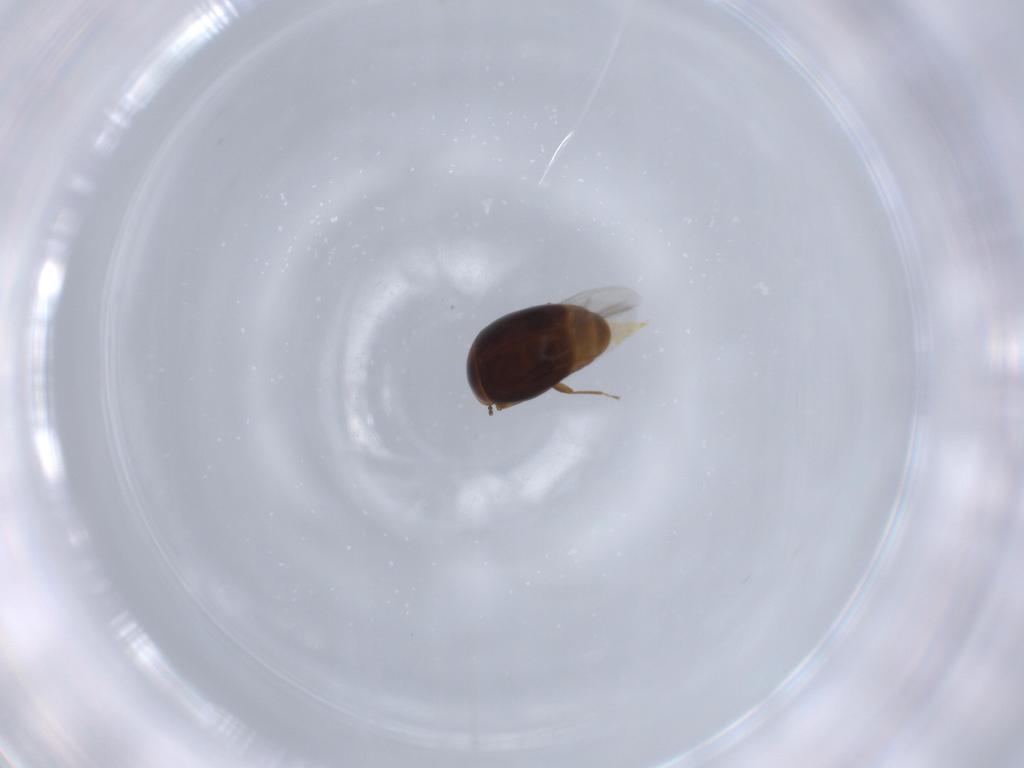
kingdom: Animalia
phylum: Arthropoda
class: Insecta
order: Coleoptera
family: Corylophidae
